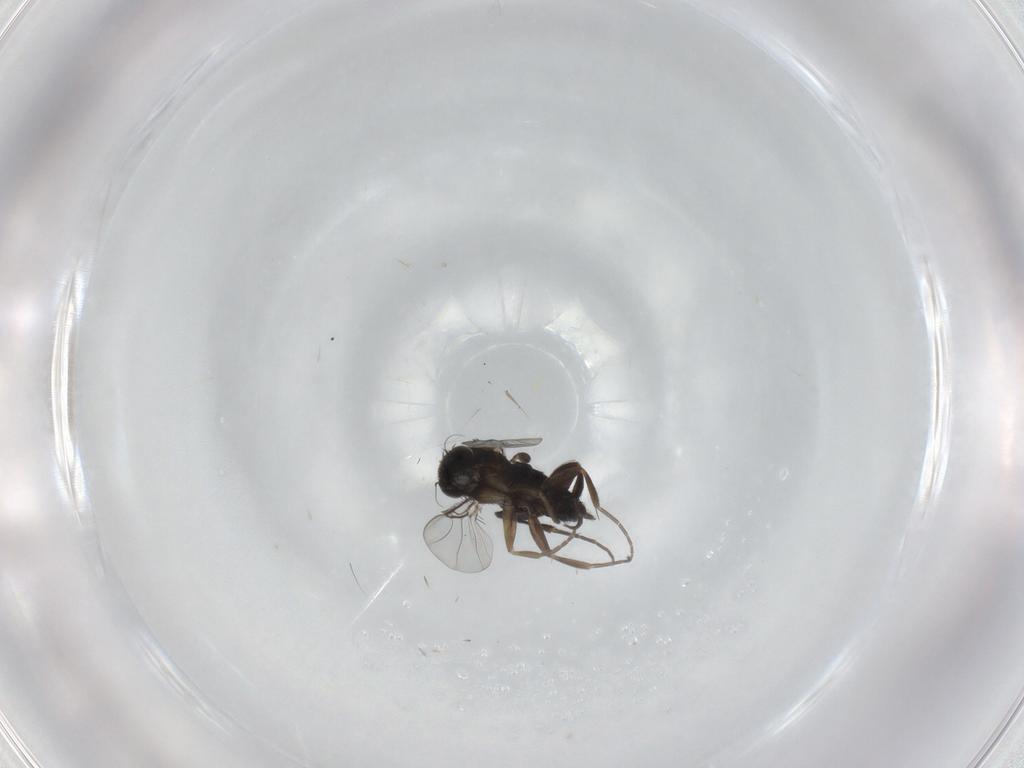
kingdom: Animalia
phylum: Arthropoda
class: Insecta
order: Diptera
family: Phoridae
